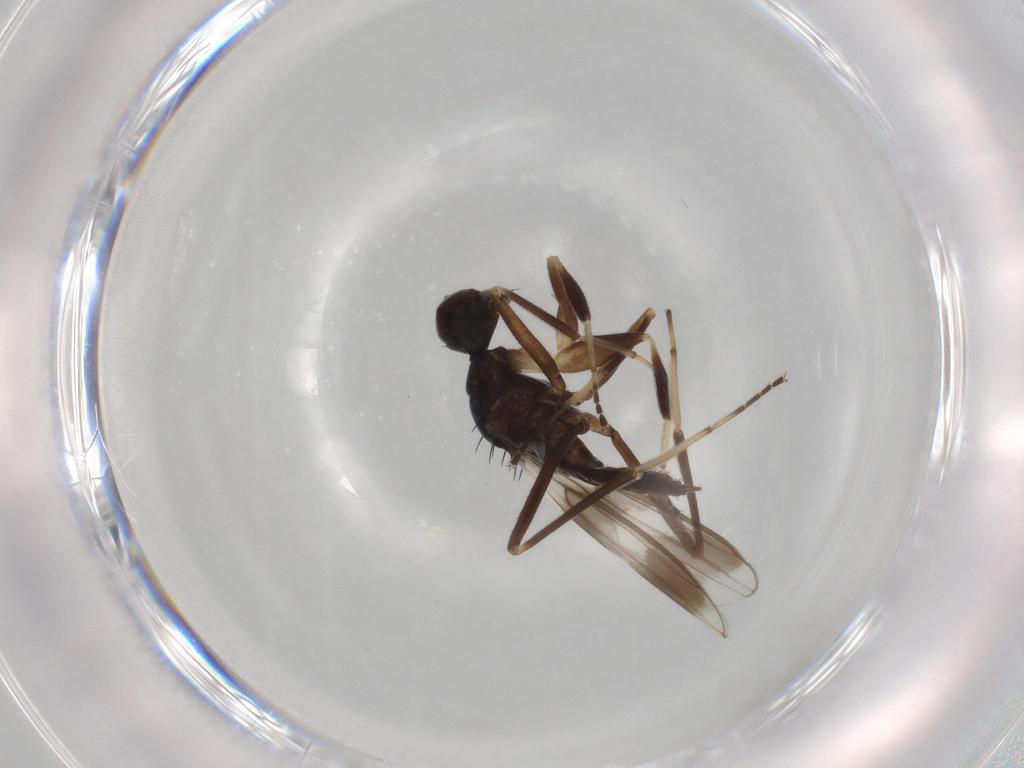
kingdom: Animalia
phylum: Arthropoda
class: Insecta
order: Diptera
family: Hybotidae
